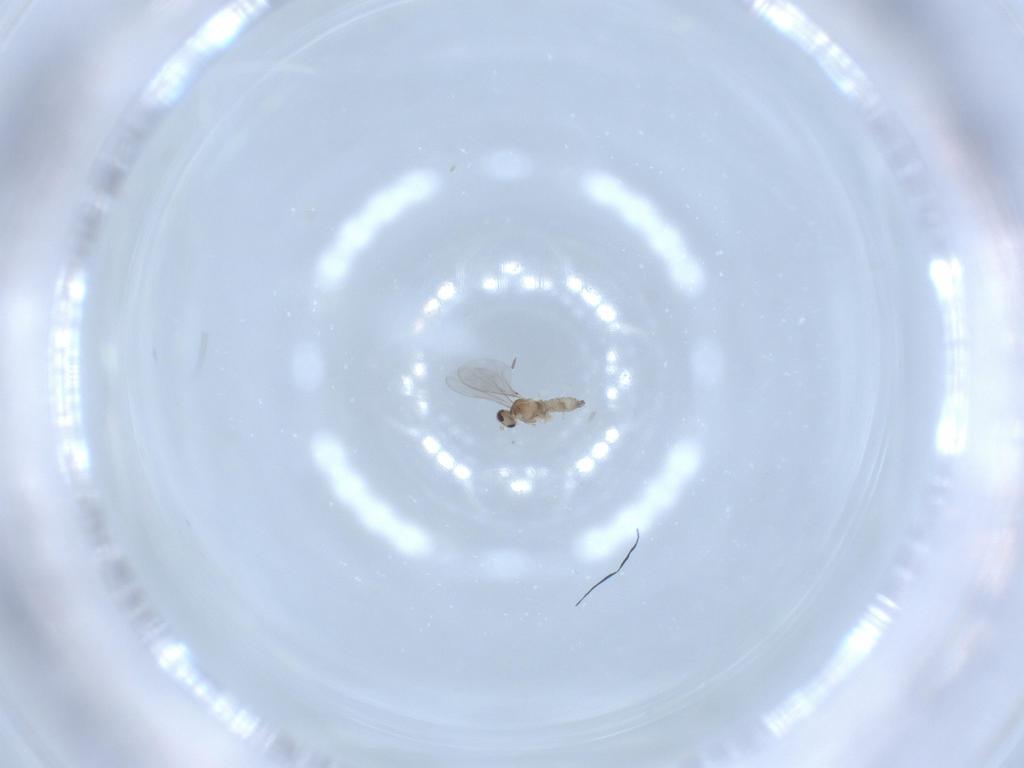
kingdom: Animalia
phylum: Arthropoda
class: Insecta
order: Diptera
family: Cecidomyiidae
